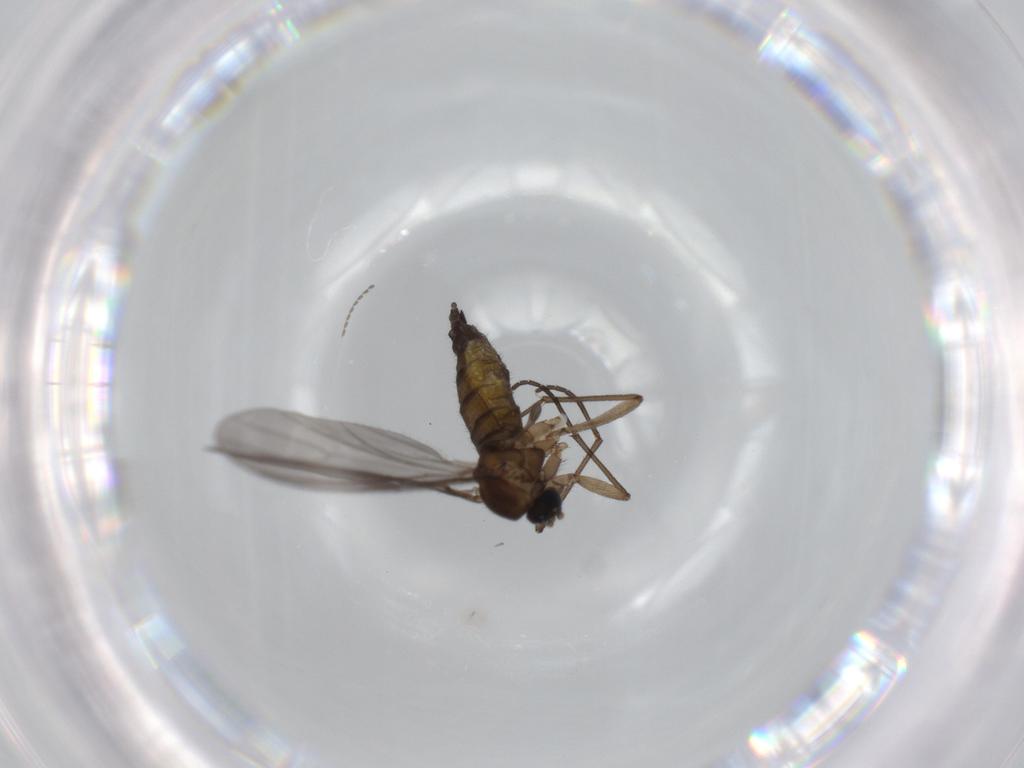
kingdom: Animalia
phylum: Arthropoda
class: Insecta
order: Diptera
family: Sciaridae
